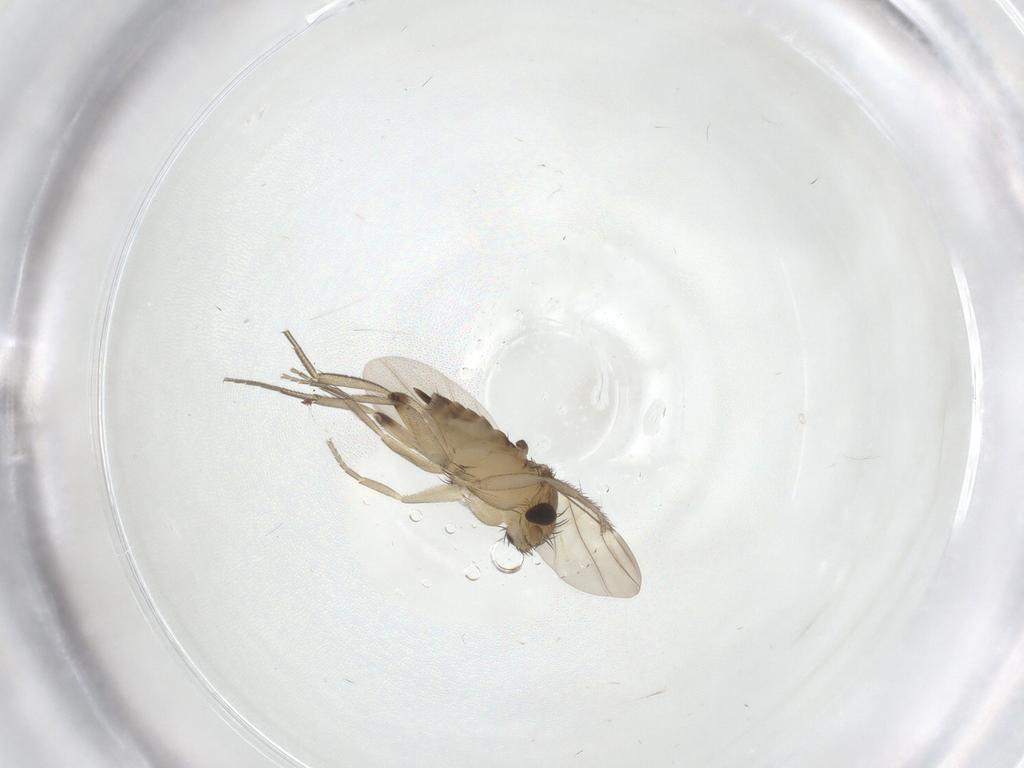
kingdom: Animalia
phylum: Arthropoda
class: Insecta
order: Diptera
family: Phoridae
